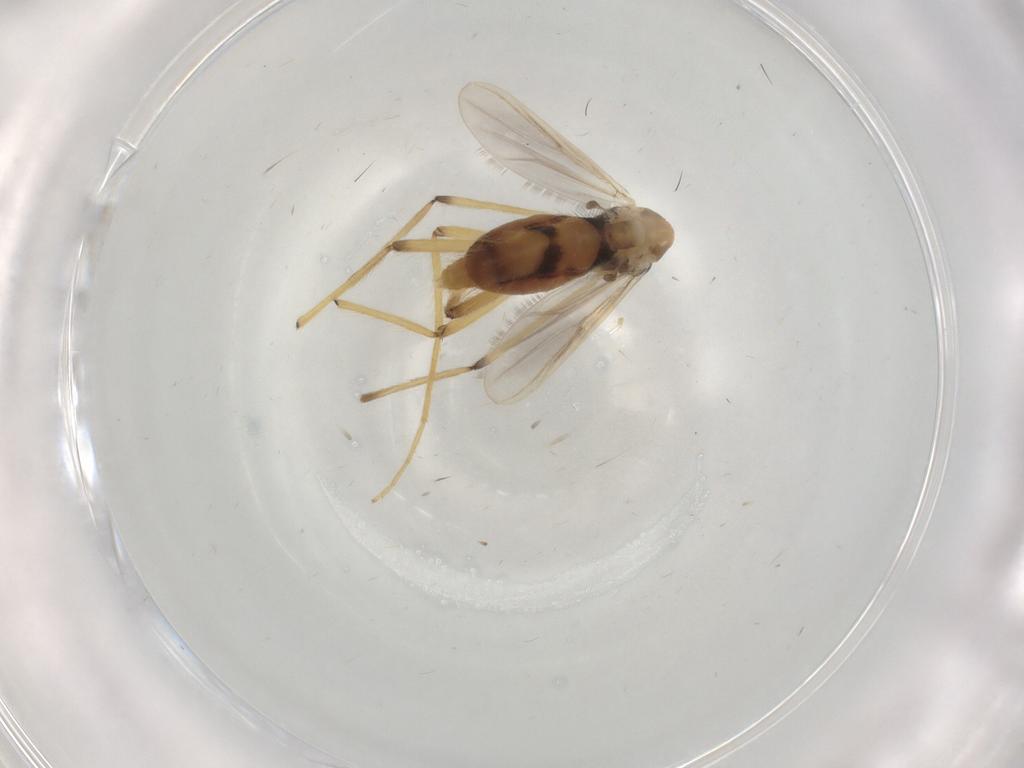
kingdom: Animalia
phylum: Arthropoda
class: Insecta
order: Diptera
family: Chironomidae
